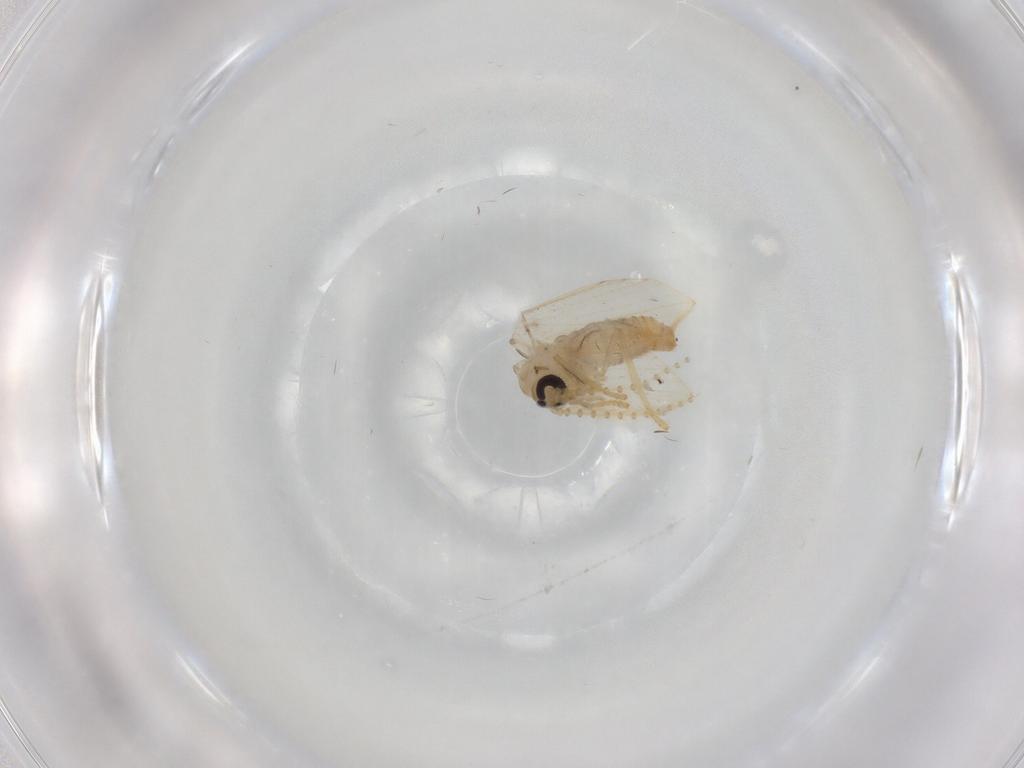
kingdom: Animalia
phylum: Arthropoda
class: Insecta
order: Diptera
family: Psychodidae
